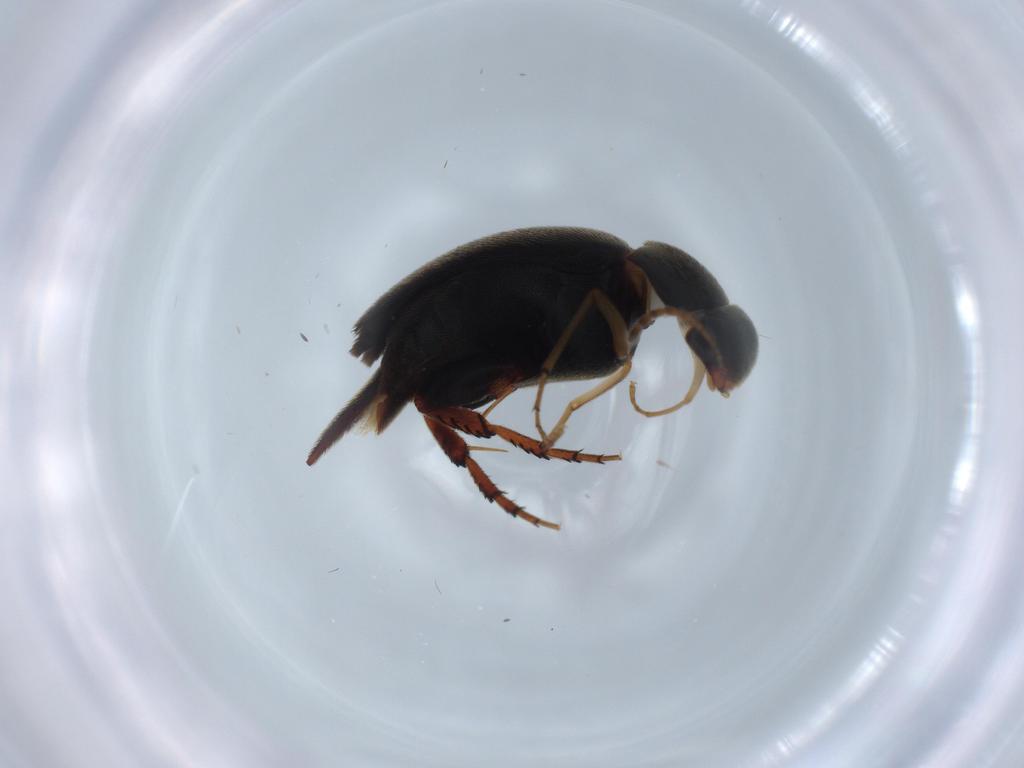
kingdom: Animalia
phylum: Arthropoda
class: Insecta
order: Coleoptera
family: Mordellidae
